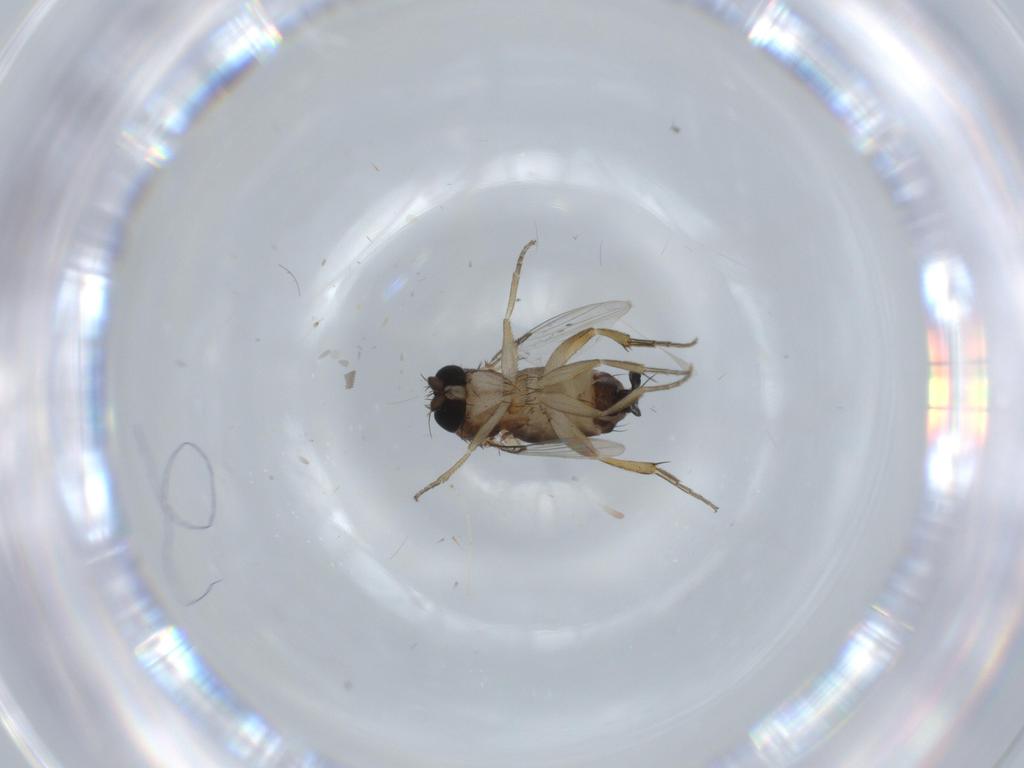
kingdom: Animalia
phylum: Arthropoda
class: Insecta
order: Diptera
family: Phoridae
